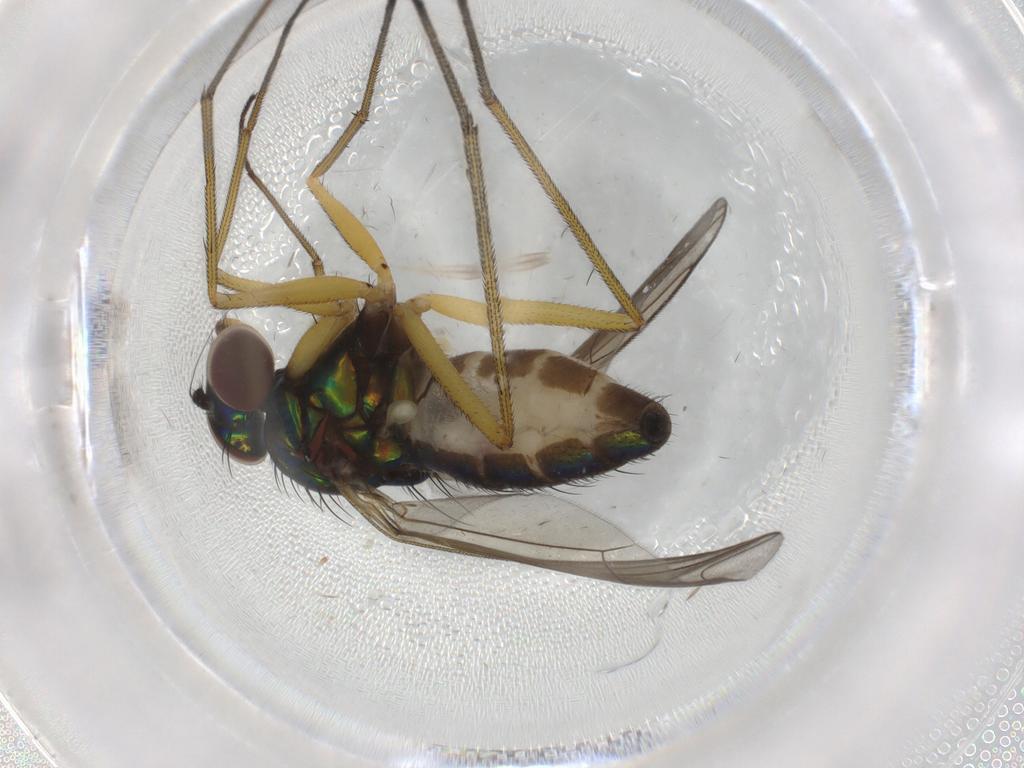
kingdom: Animalia
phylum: Arthropoda
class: Insecta
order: Diptera
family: Dolichopodidae
